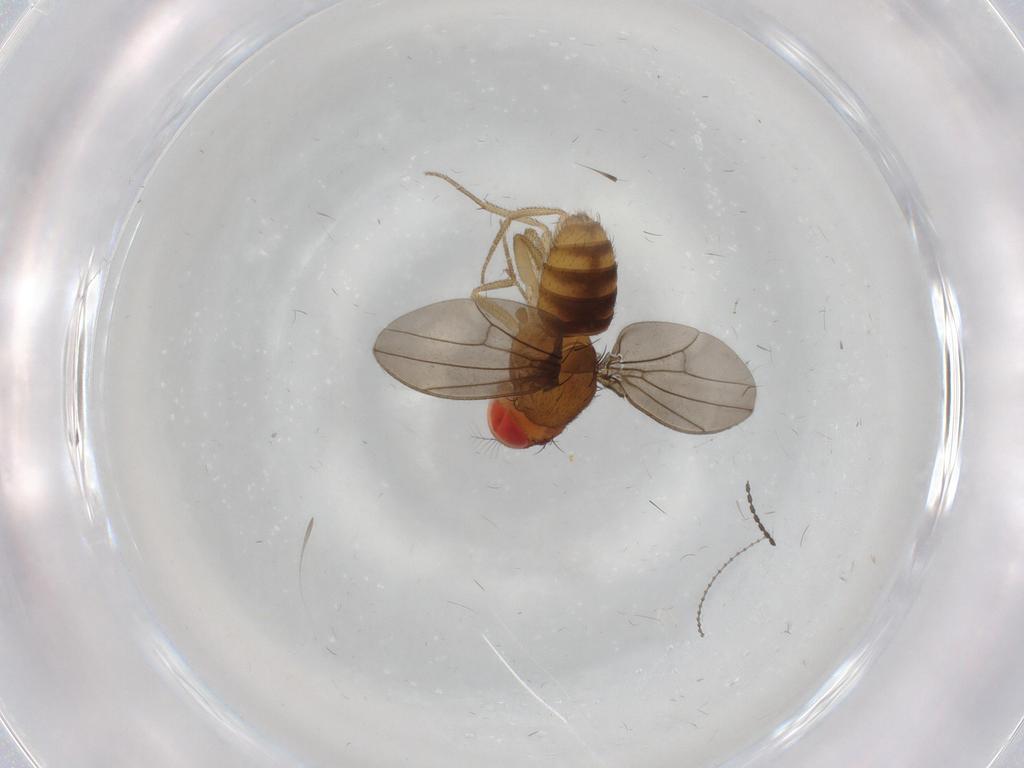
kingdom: Animalia
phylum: Arthropoda
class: Insecta
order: Diptera
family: Drosophilidae
